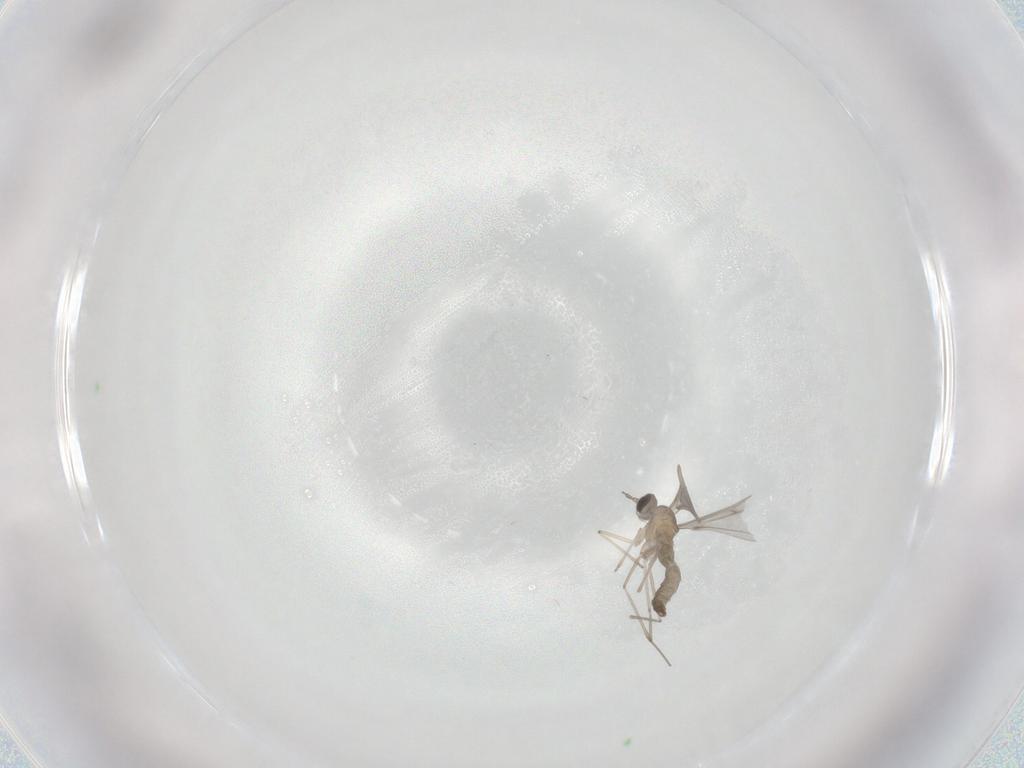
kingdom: Animalia
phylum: Arthropoda
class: Insecta
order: Diptera
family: Cecidomyiidae
